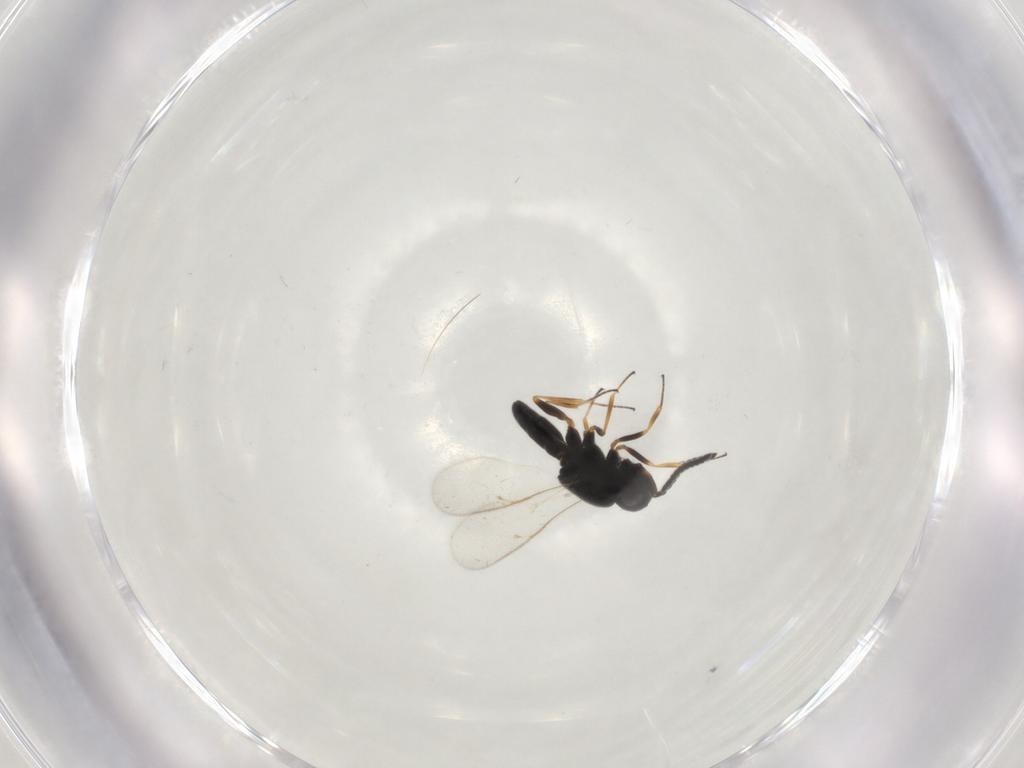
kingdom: Animalia
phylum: Arthropoda
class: Insecta
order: Hymenoptera
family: Scelionidae
